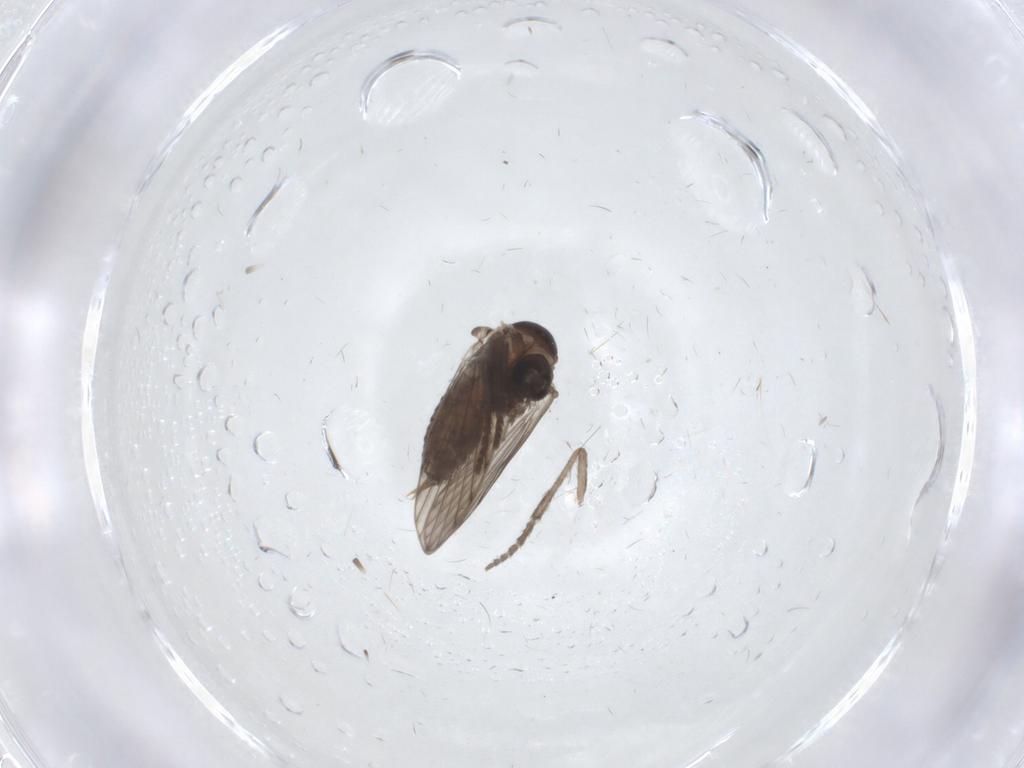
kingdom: Animalia
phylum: Arthropoda
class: Insecta
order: Diptera
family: Psychodidae
